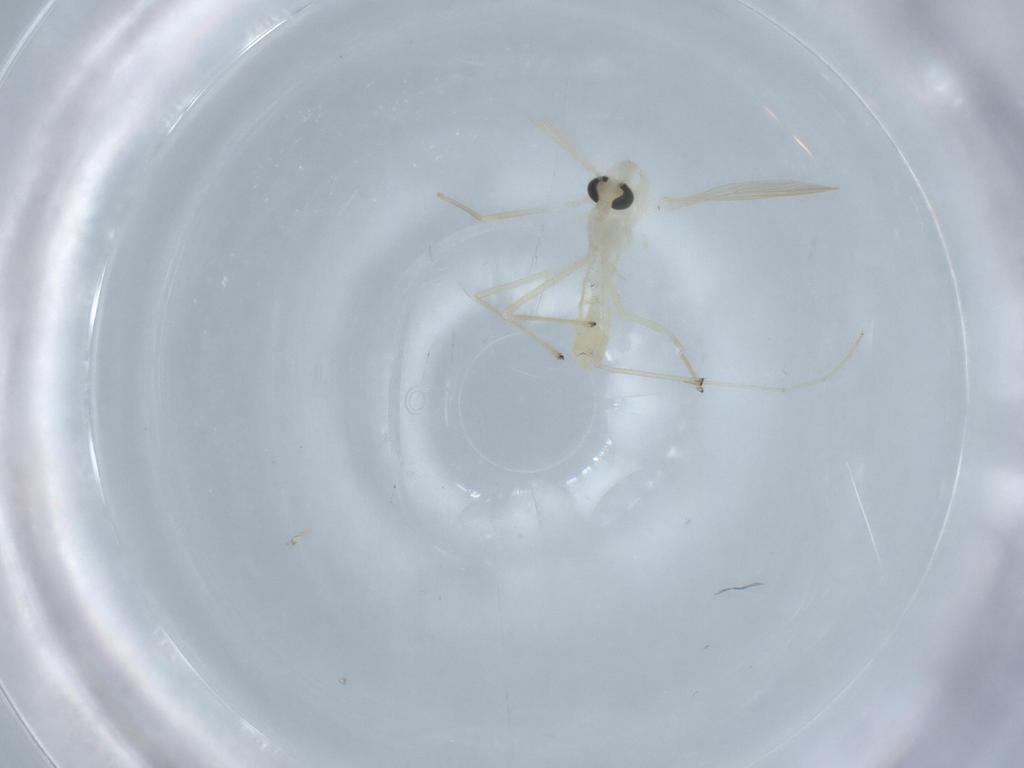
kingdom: Animalia
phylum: Arthropoda
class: Insecta
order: Diptera
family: Chironomidae
